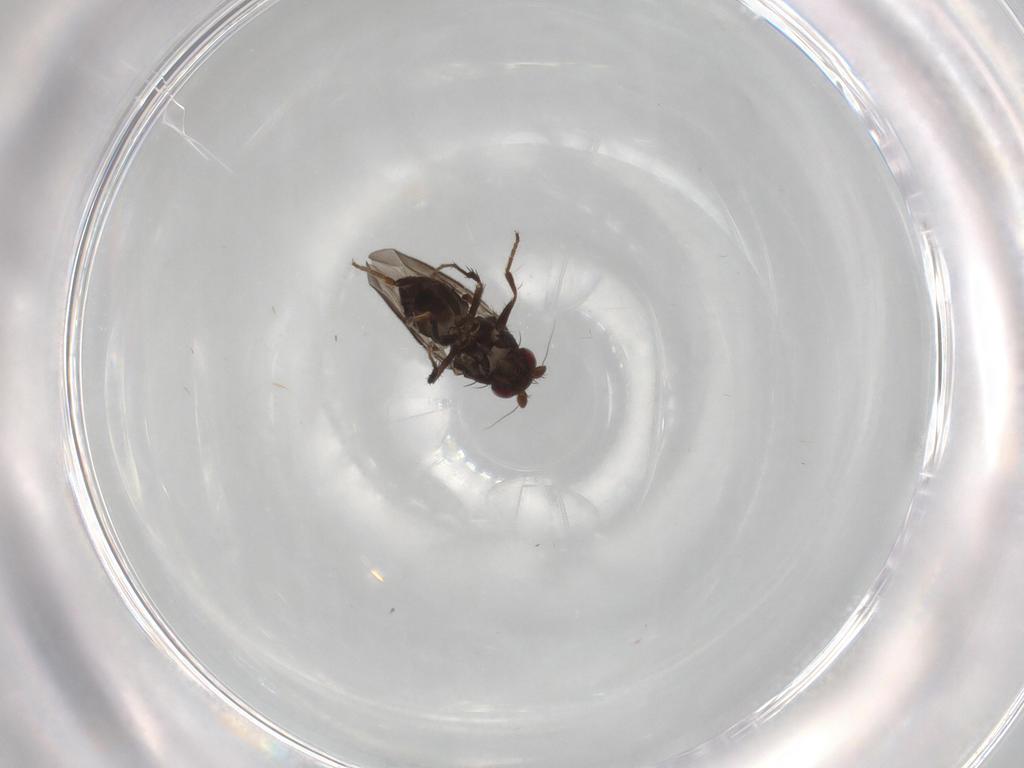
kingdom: Animalia
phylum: Arthropoda
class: Insecta
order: Diptera
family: Sphaeroceridae
